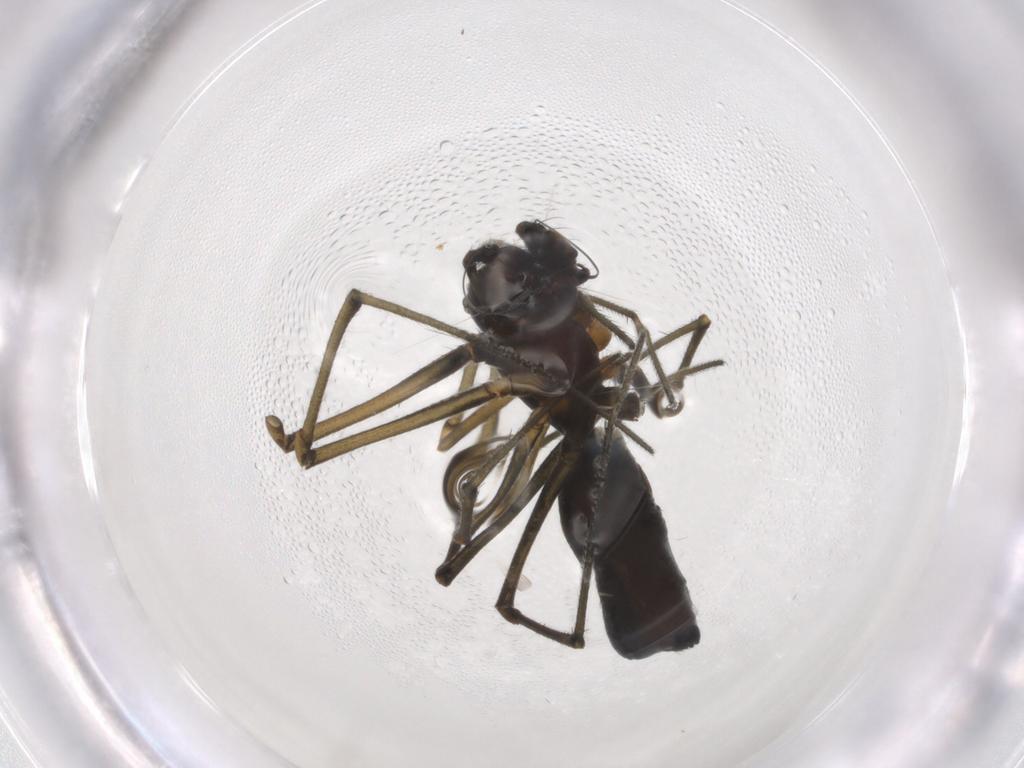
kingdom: Animalia
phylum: Arthropoda
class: Arachnida
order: Araneae
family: Linyphiidae
